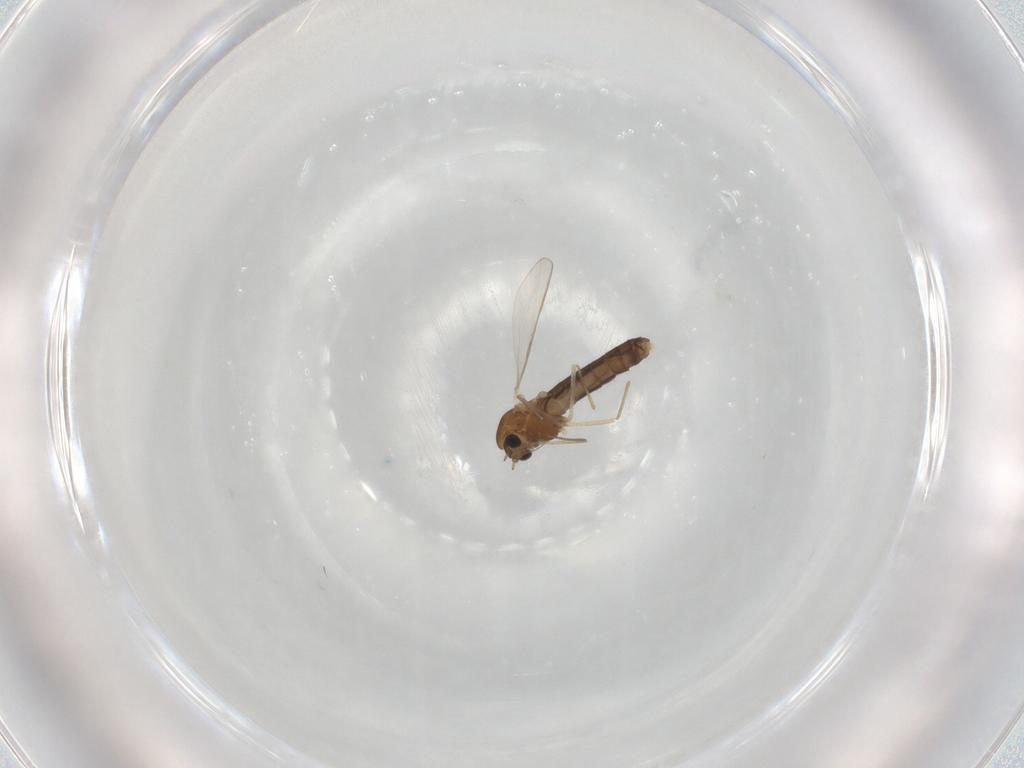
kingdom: Animalia
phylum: Arthropoda
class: Insecta
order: Diptera
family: Chironomidae
